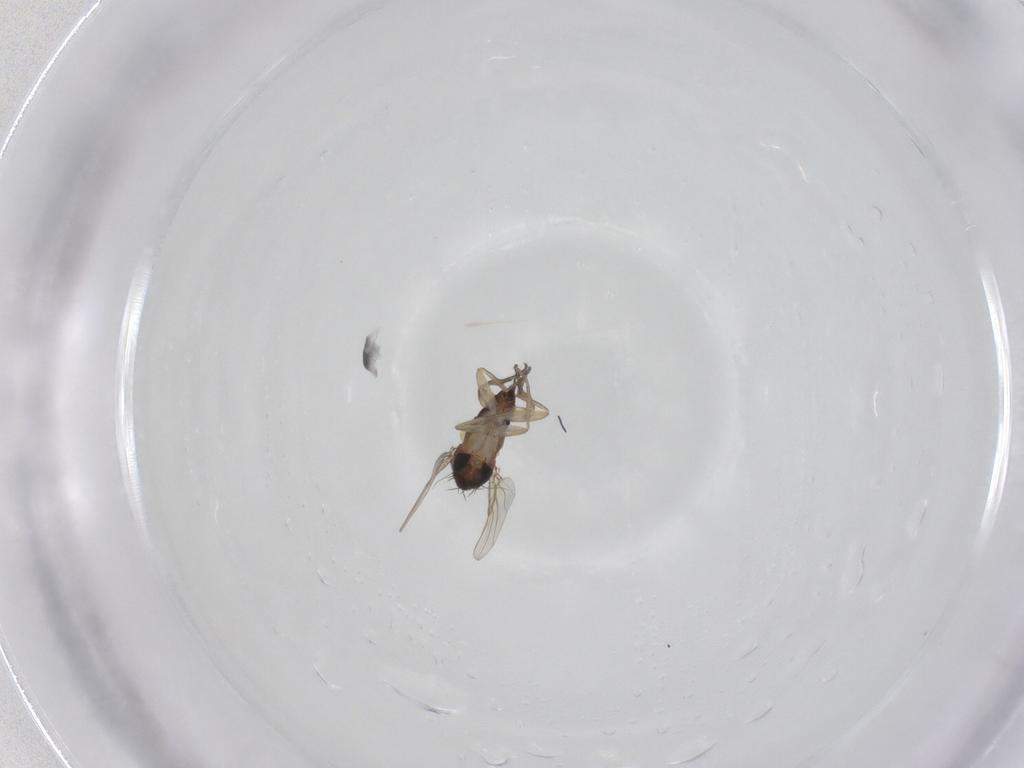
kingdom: Animalia
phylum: Arthropoda
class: Insecta
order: Diptera
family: Phoridae
